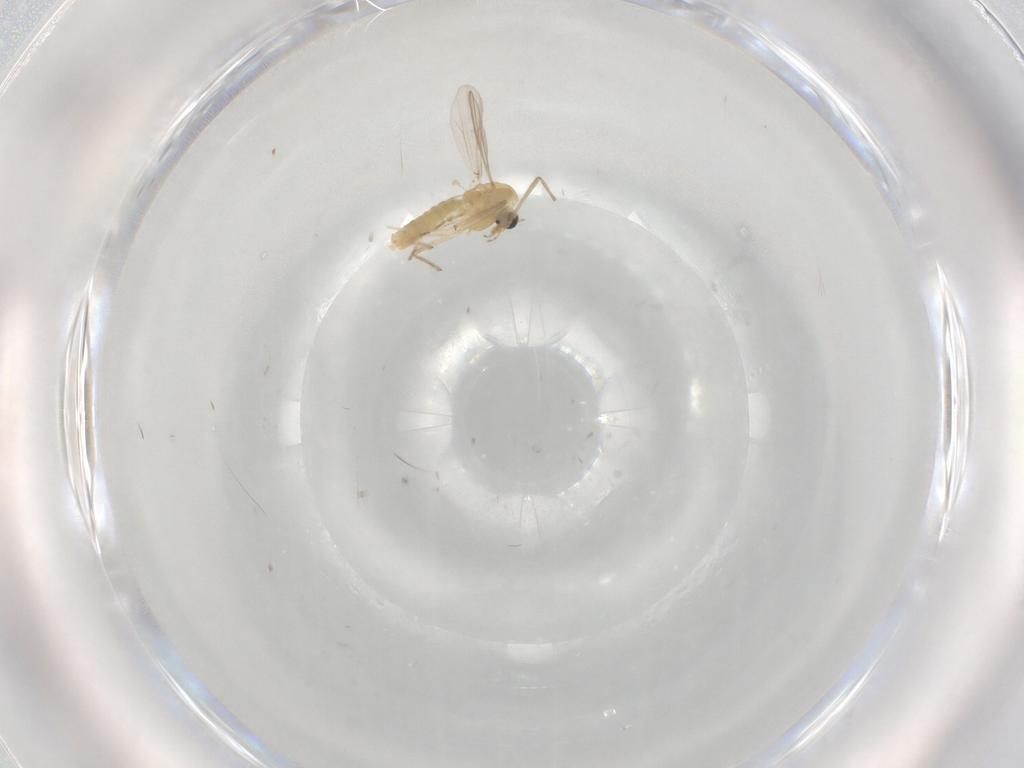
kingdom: Animalia
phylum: Arthropoda
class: Insecta
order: Diptera
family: Chironomidae
